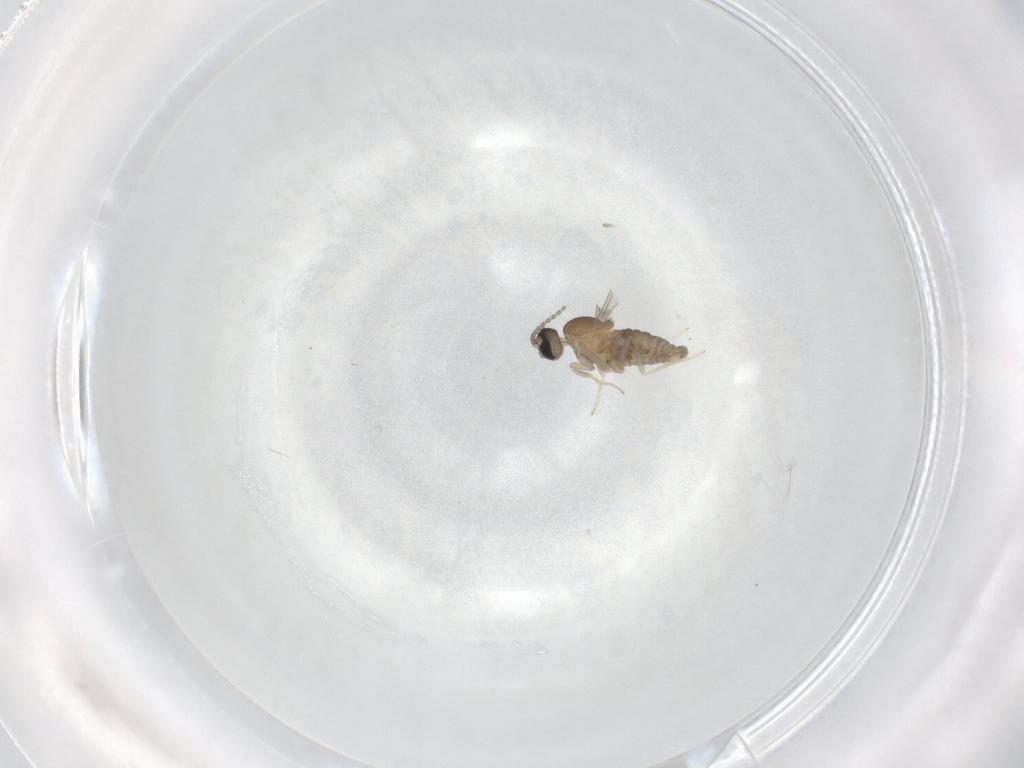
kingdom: Animalia
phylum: Arthropoda
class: Insecta
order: Diptera
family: Cecidomyiidae
